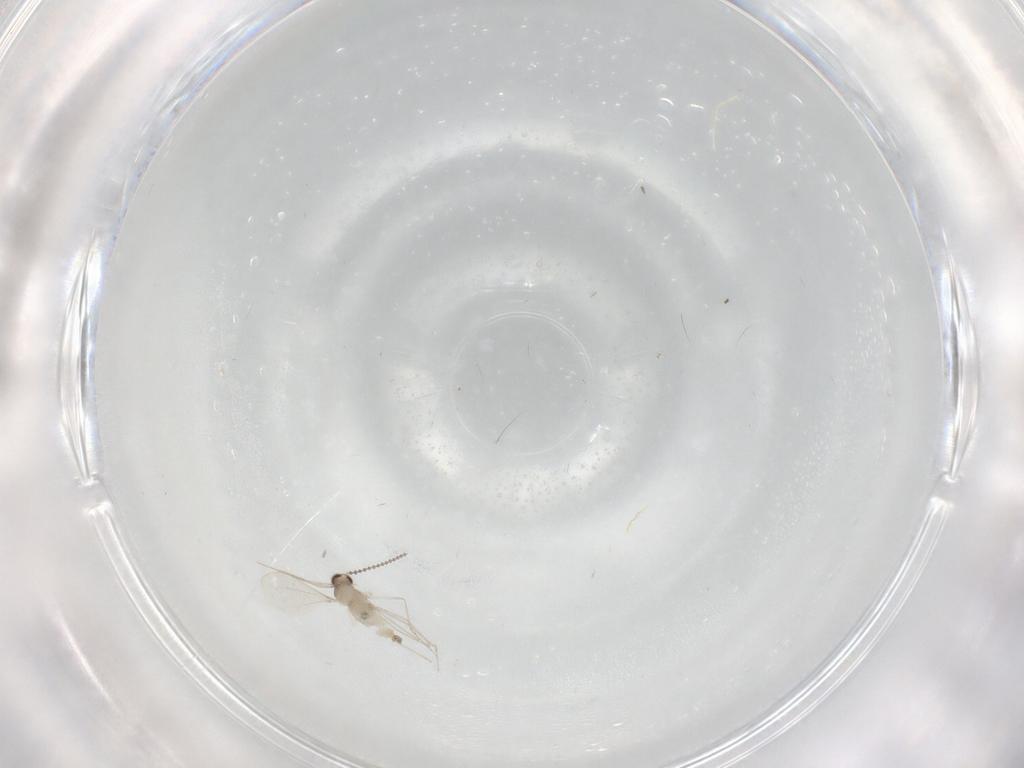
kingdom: Animalia
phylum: Arthropoda
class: Insecta
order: Diptera
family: Cecidomyiidae
